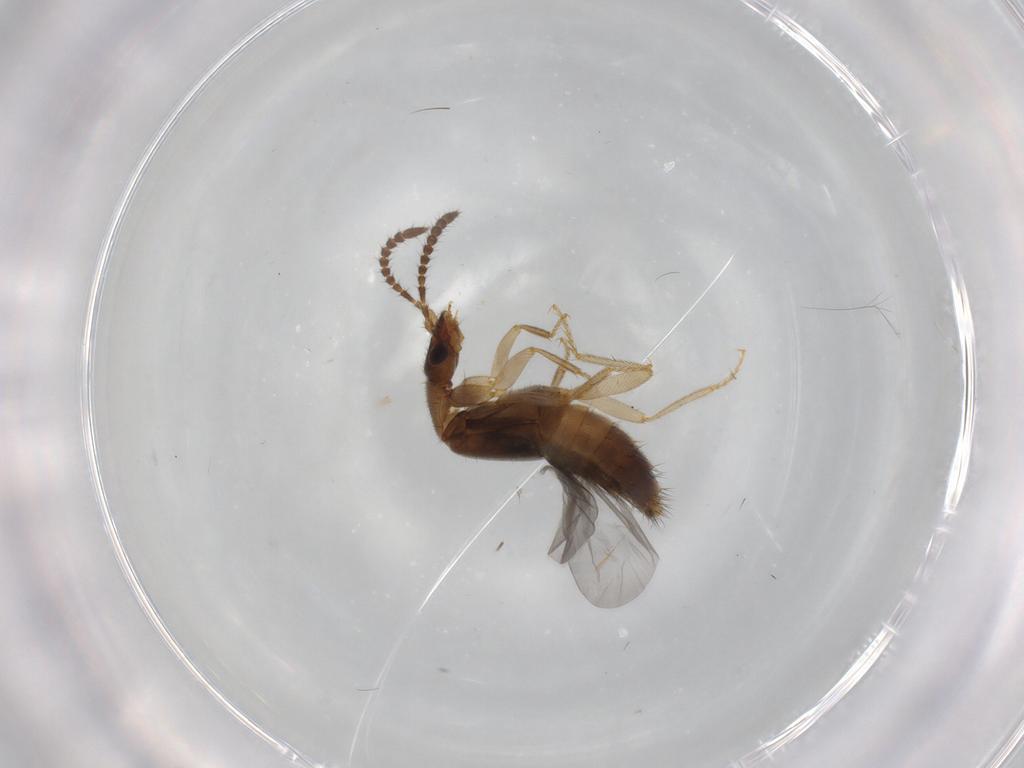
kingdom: Animalia
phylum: Arthropoda
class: Insecta
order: Coleoptera
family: Staphylinidae
